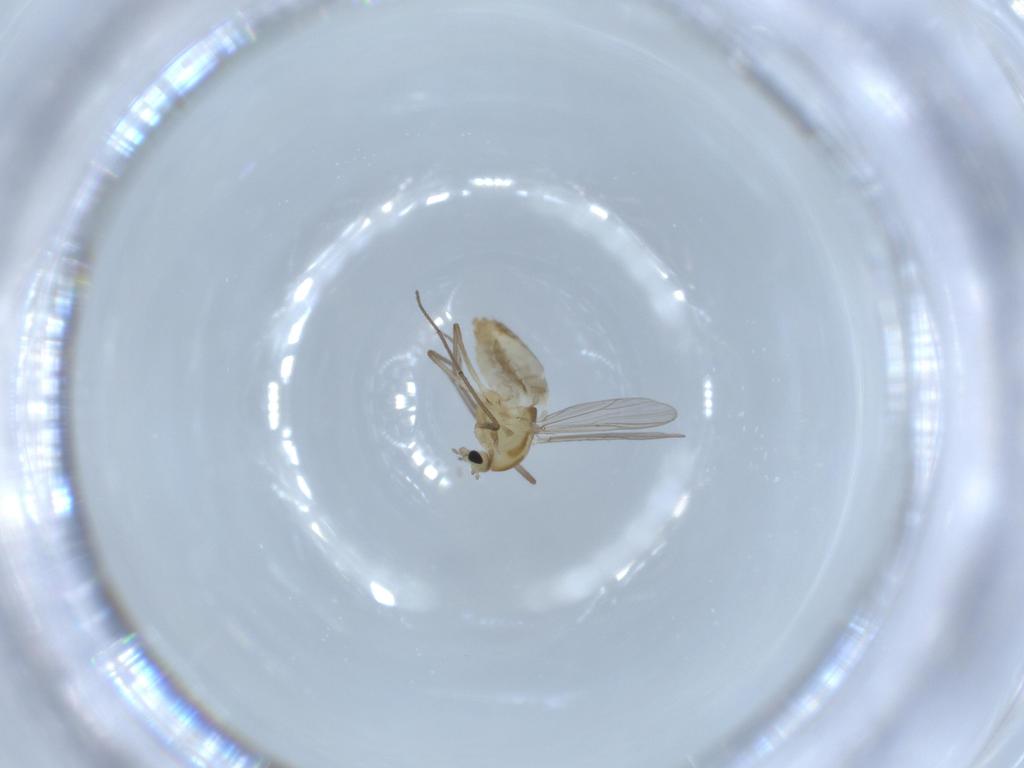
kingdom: Animalia
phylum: Arthropoda
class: Insecta
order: Diptera
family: Chironomidae
